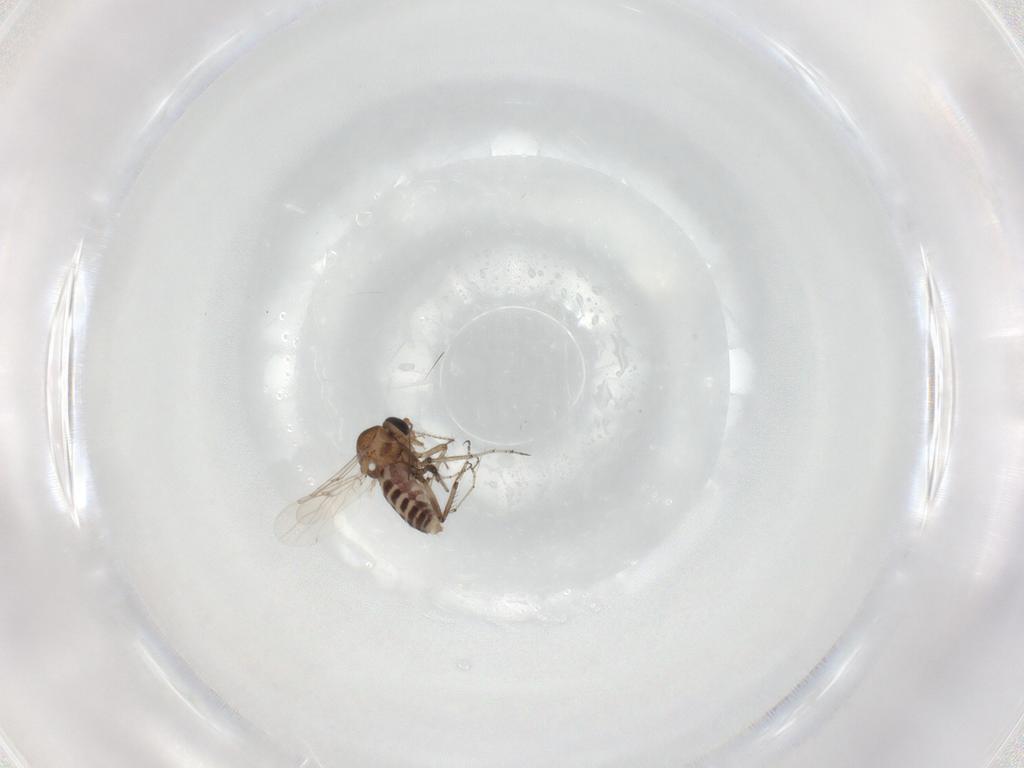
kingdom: Animalia
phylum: Arthropoda
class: Insecta
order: Diptera
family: Ceratopogonidae
